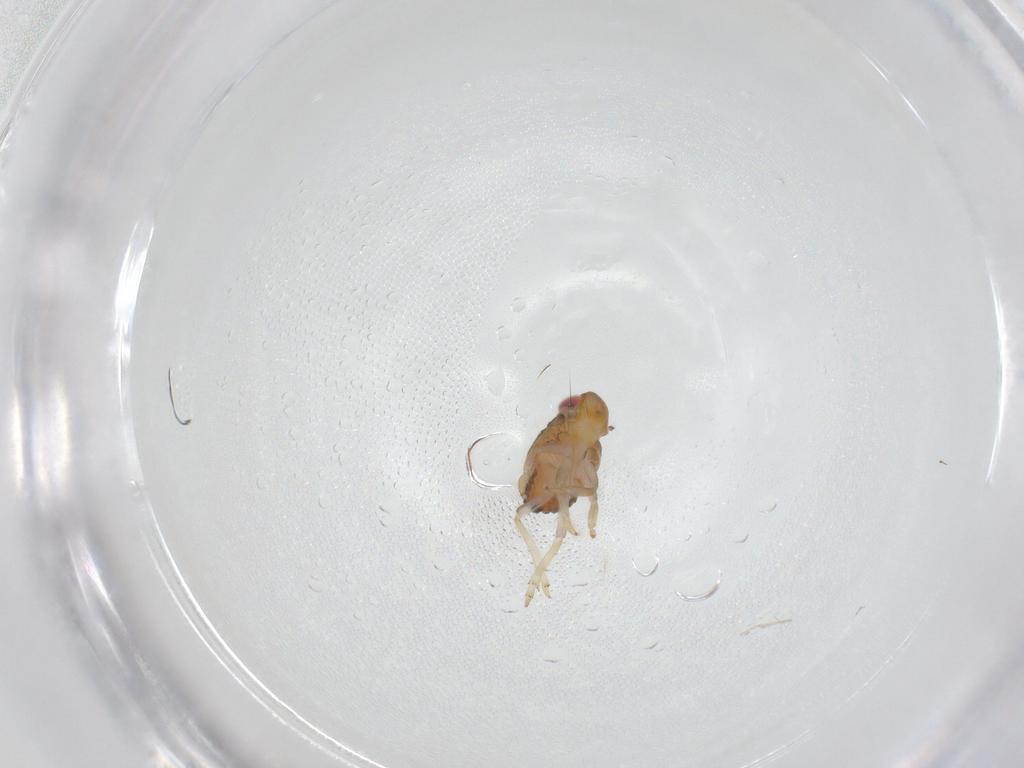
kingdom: Animalia
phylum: Arthropoda
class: Insecta
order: Hemiptera
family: Issidae
